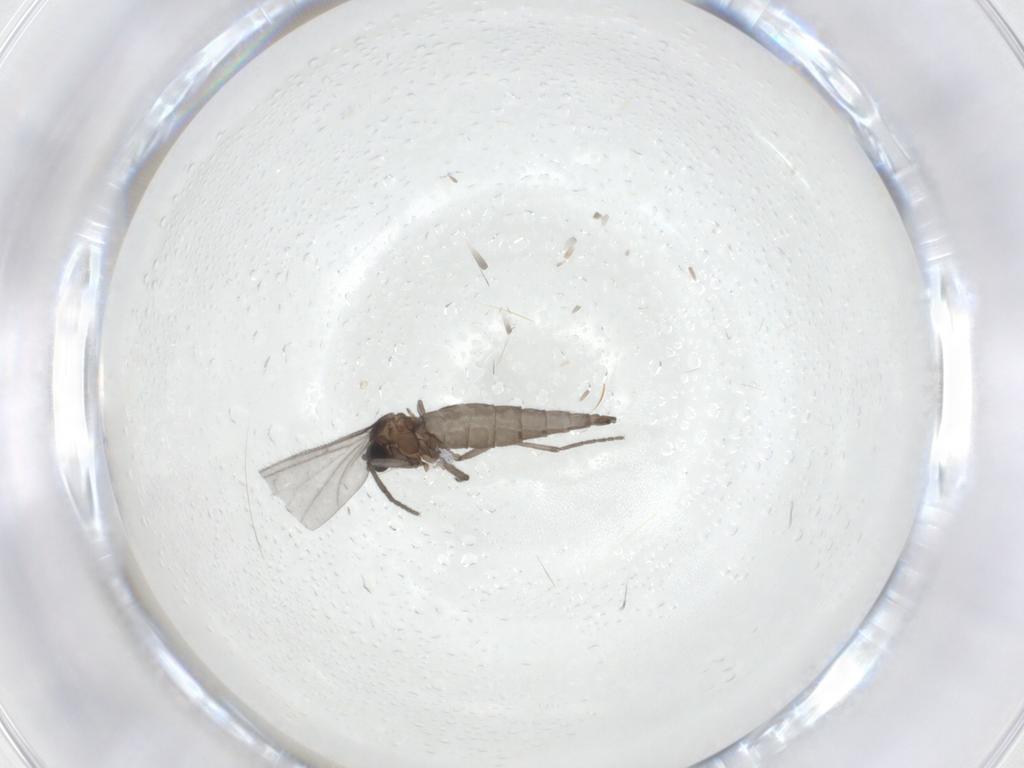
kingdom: Animalia
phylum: Arthropoda
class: Insecta
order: Diptera
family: Sciaridae
